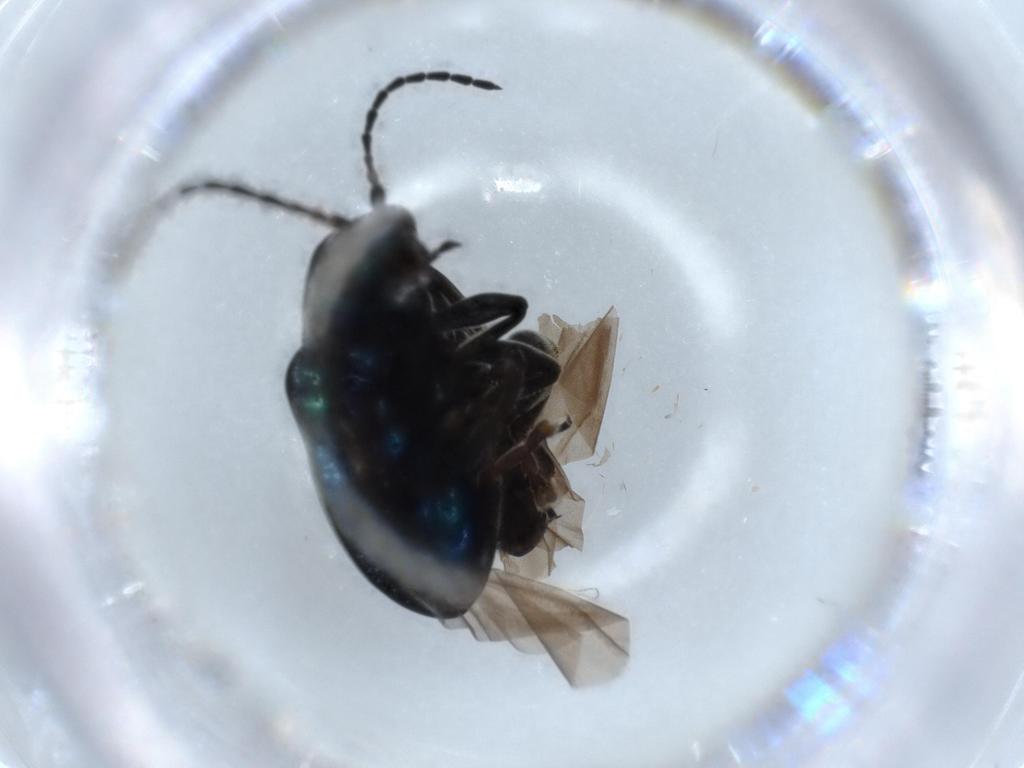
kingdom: Animalia
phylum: Arthropoda
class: Insecta
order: Coleoptera
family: Chrysomelidae
